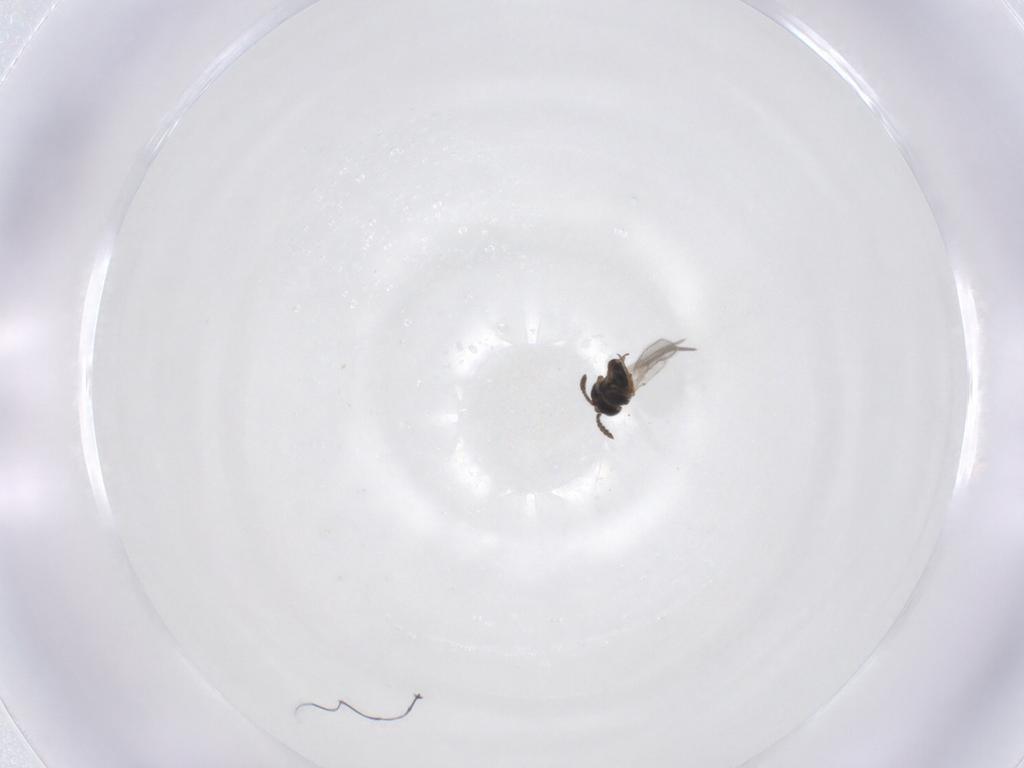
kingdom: Animalia
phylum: Arthropoda
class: Insecta
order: Hymenoptera
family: Scelionidae
